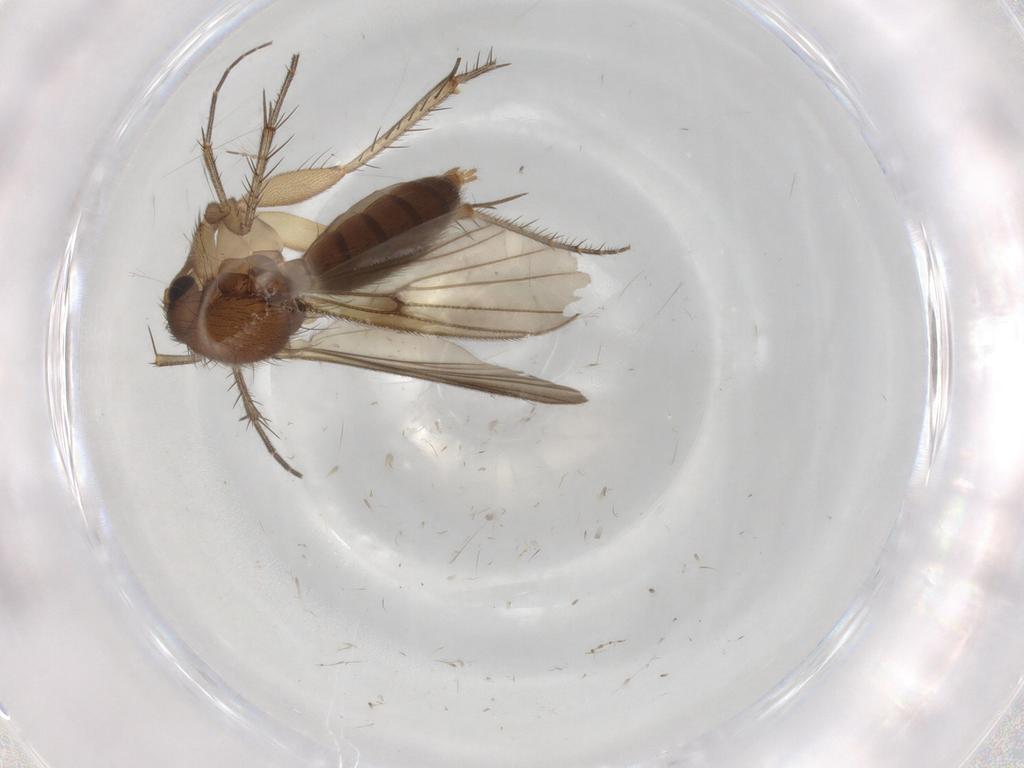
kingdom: Animalia
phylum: Arthropoda
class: Insecta
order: Diptera
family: Mycetophilidae
